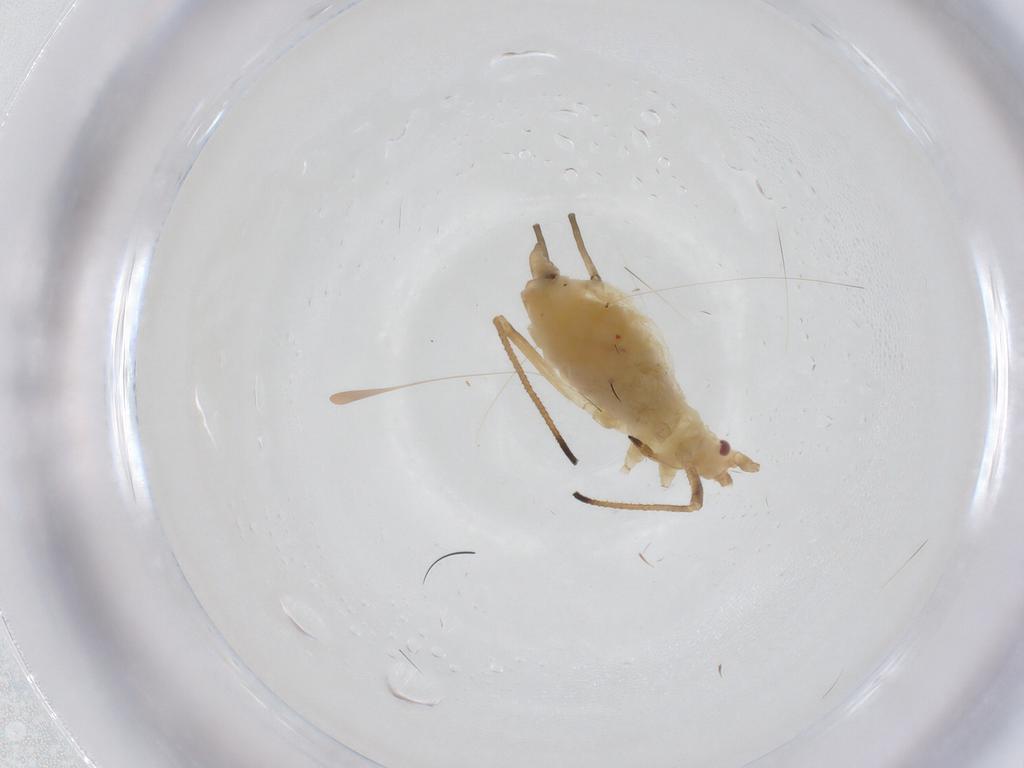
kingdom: Animalia
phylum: Arthropoda
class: Insecta
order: Hemiptera
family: Aphididae
